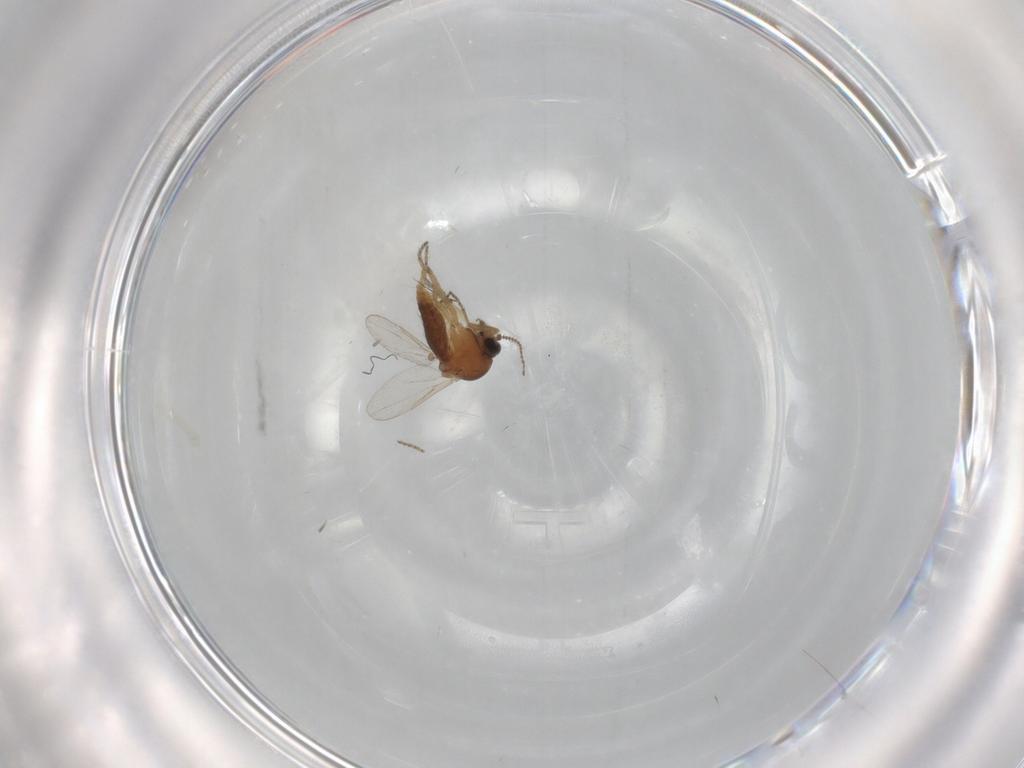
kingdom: Animalia
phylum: Arthropoda
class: Insecta
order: Diptera
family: Ceratopogonidae
